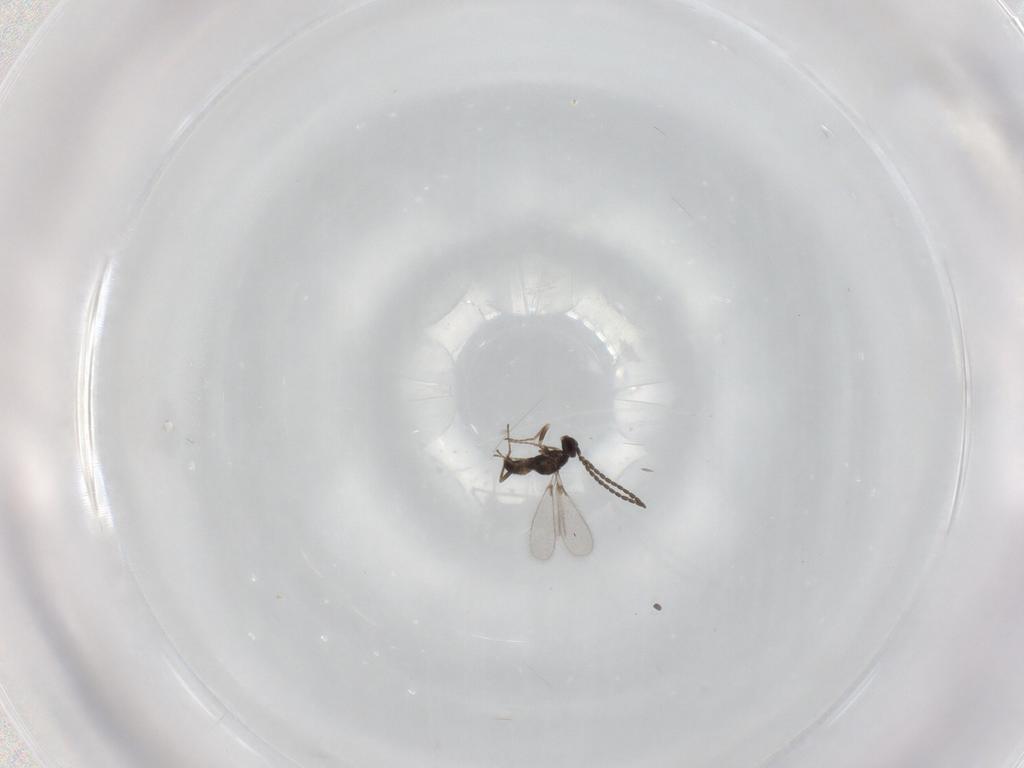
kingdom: Animalia
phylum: Arthropoda
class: Insecta
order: Hymenoptera
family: Mymaridae
